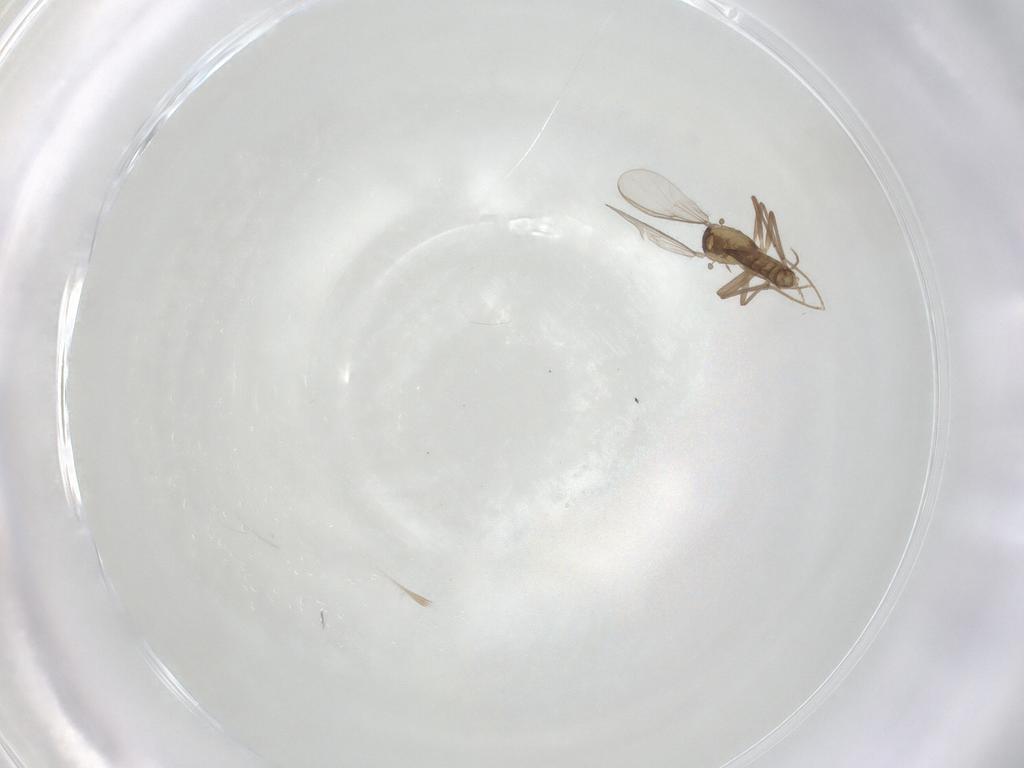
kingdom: Animalia
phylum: Arthropoda
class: Insecta
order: Diptera
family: Chironomidae
